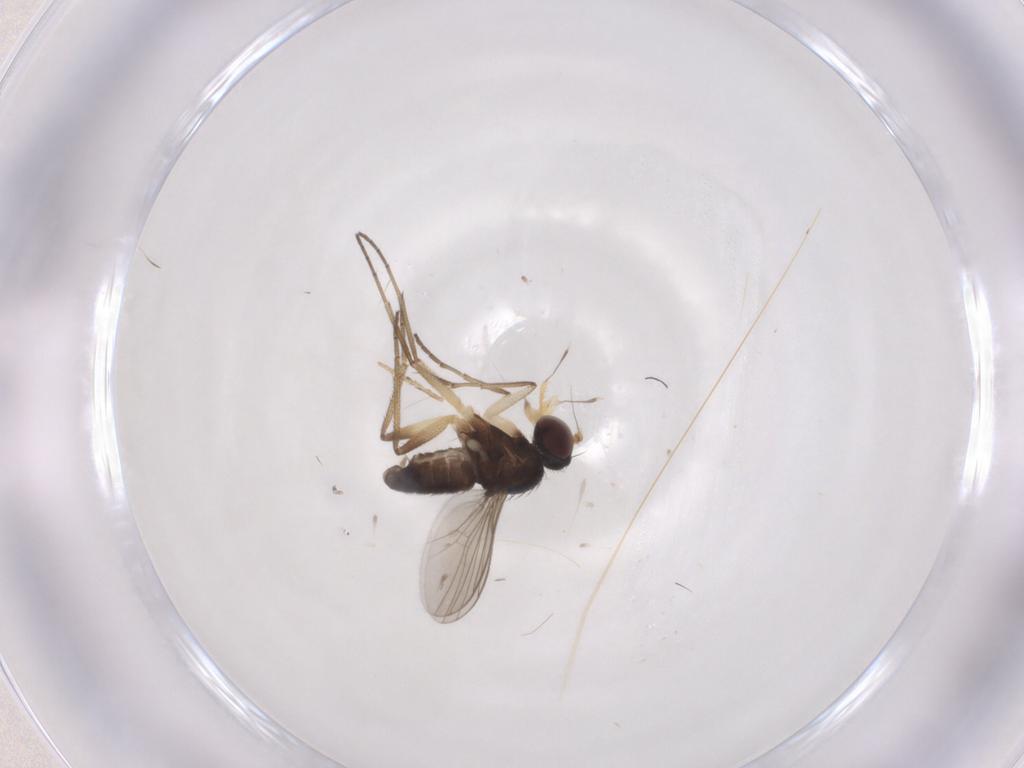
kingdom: Animalia
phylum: Arthropoda
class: Insecta
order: Diptera
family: Dolichopodidae
